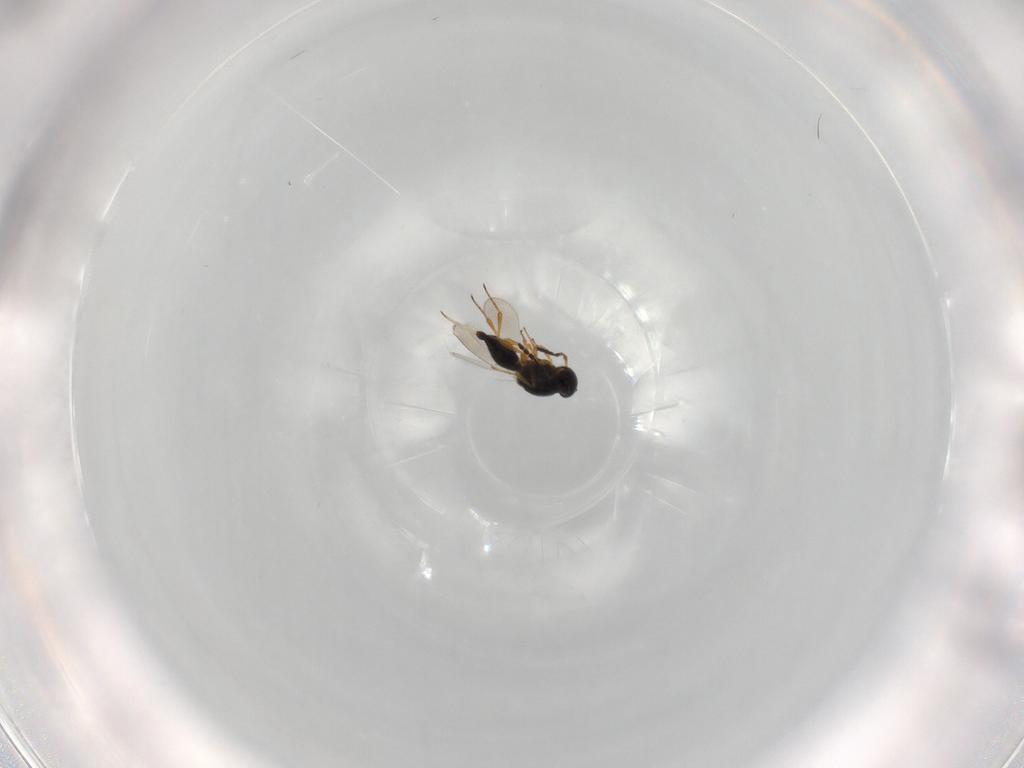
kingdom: Animalia
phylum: Arthropoda
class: Insecta
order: Hymenoptera
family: Platygastridae
